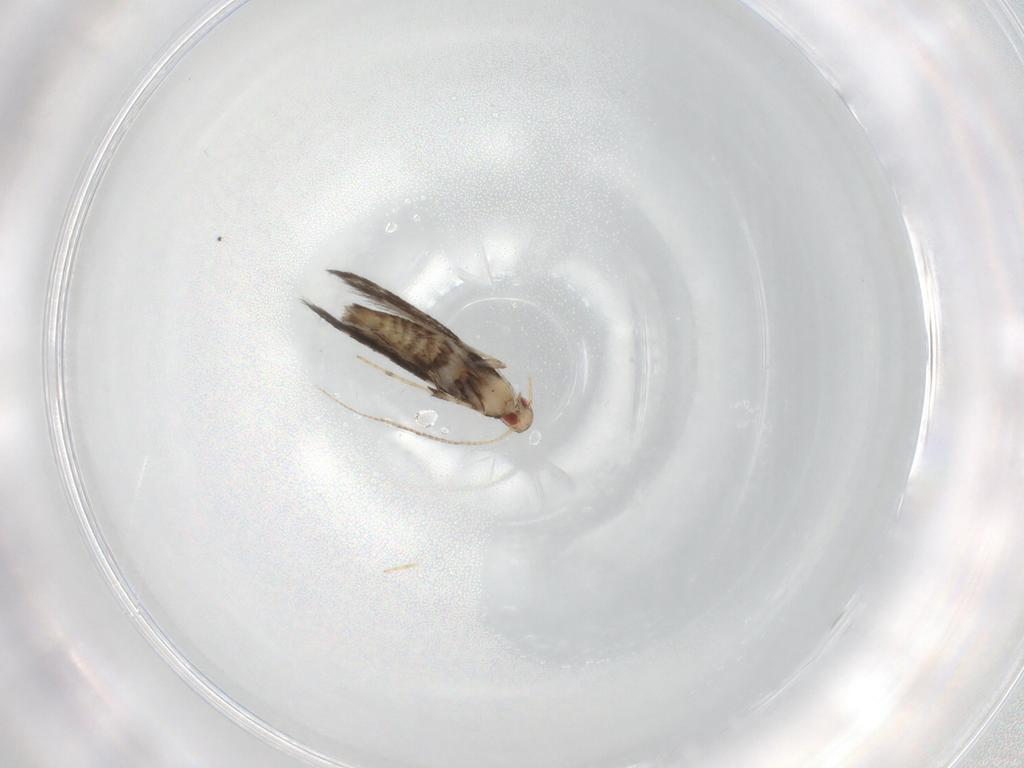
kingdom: Animalia
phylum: Arthropoda
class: Insecta
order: Lepidoptera
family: Gracillariidae
